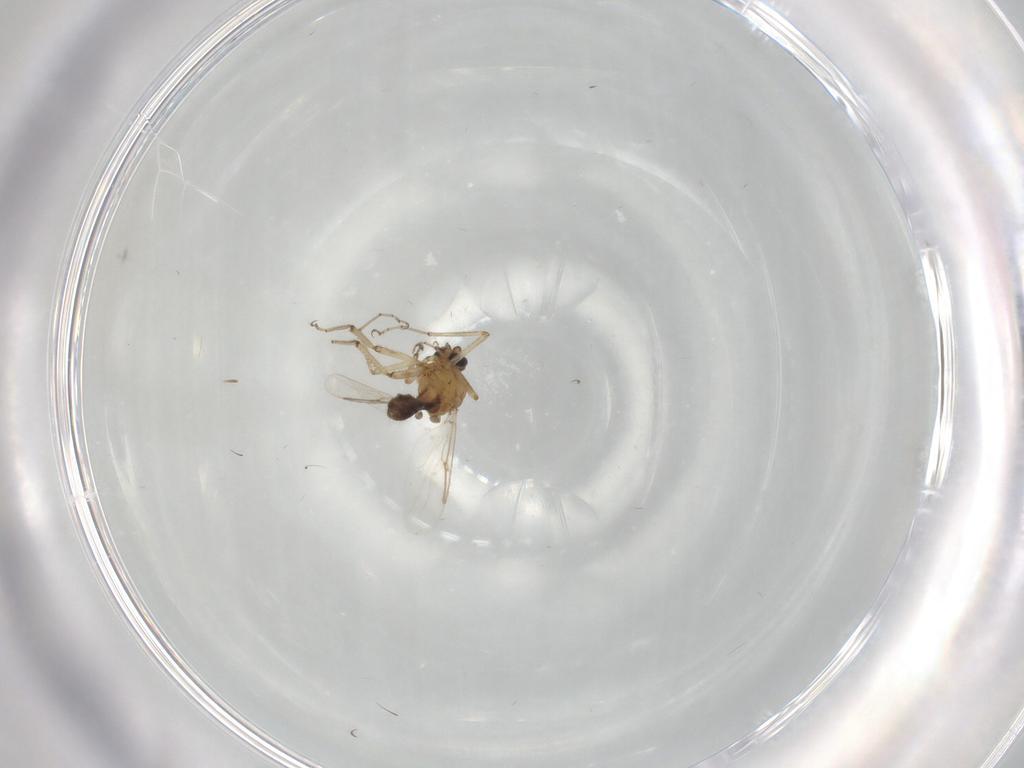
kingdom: Animalia
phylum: Arthropoda
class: Insecta
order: Diptera
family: Ceratopogonidae
